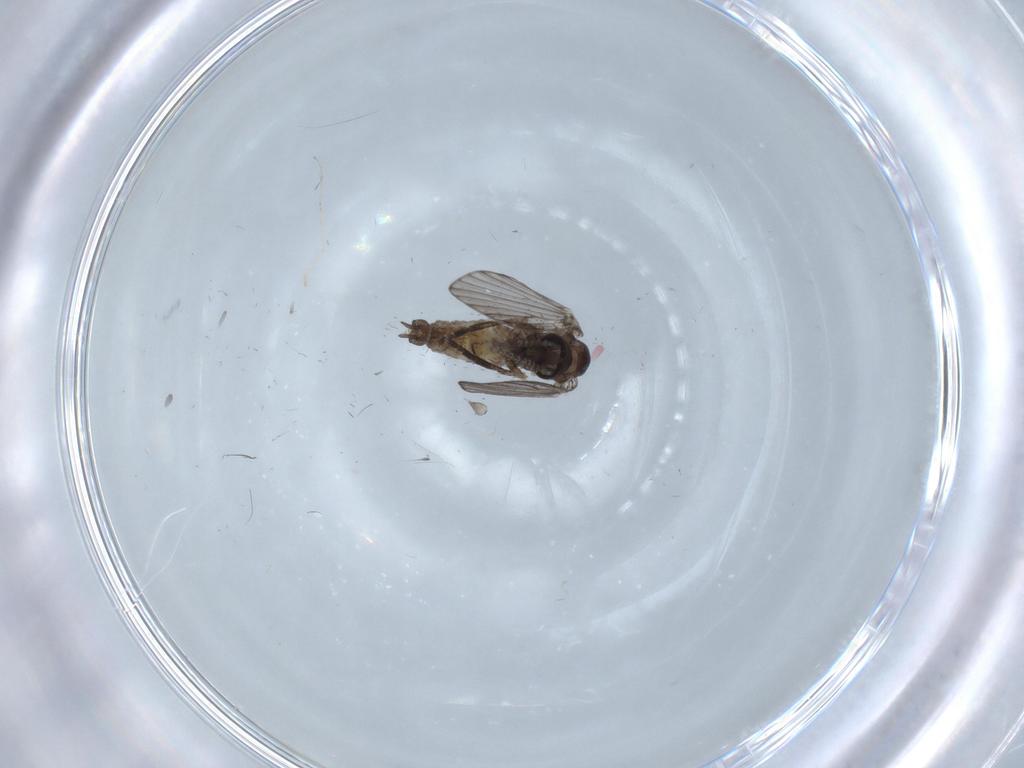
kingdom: Animalia
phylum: Arthropoda
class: Insecta
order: Diptera
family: Psychodidae
